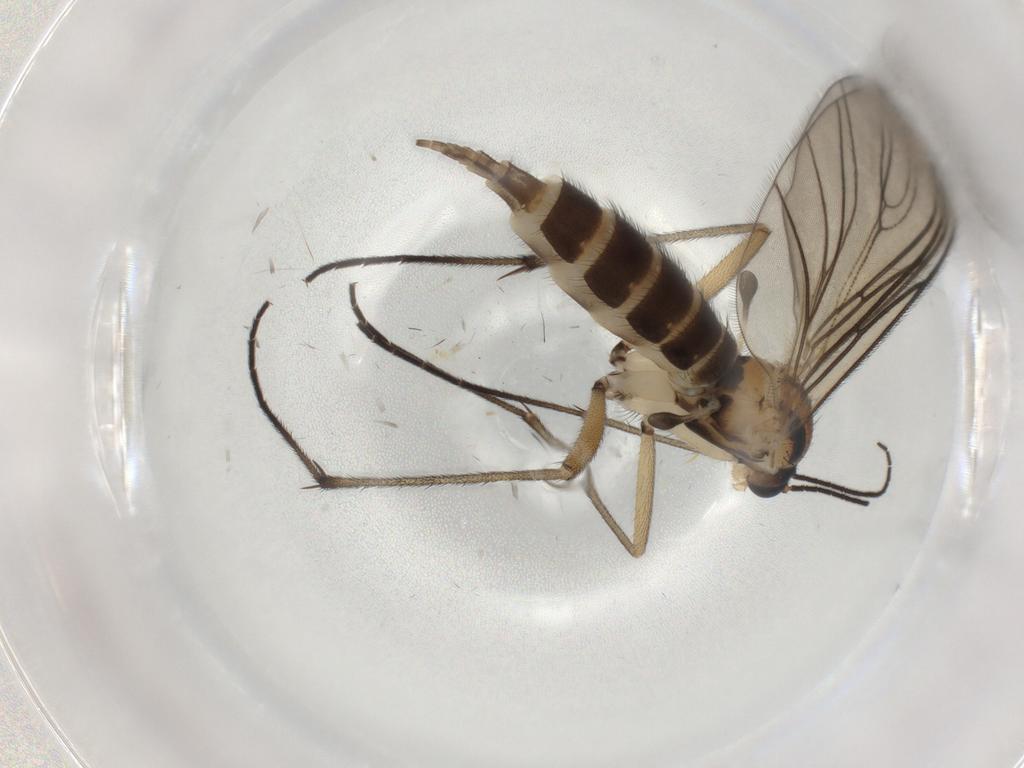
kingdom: Animalia
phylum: Arthropoda
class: Insecta
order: Diptera
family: Sciaridae
